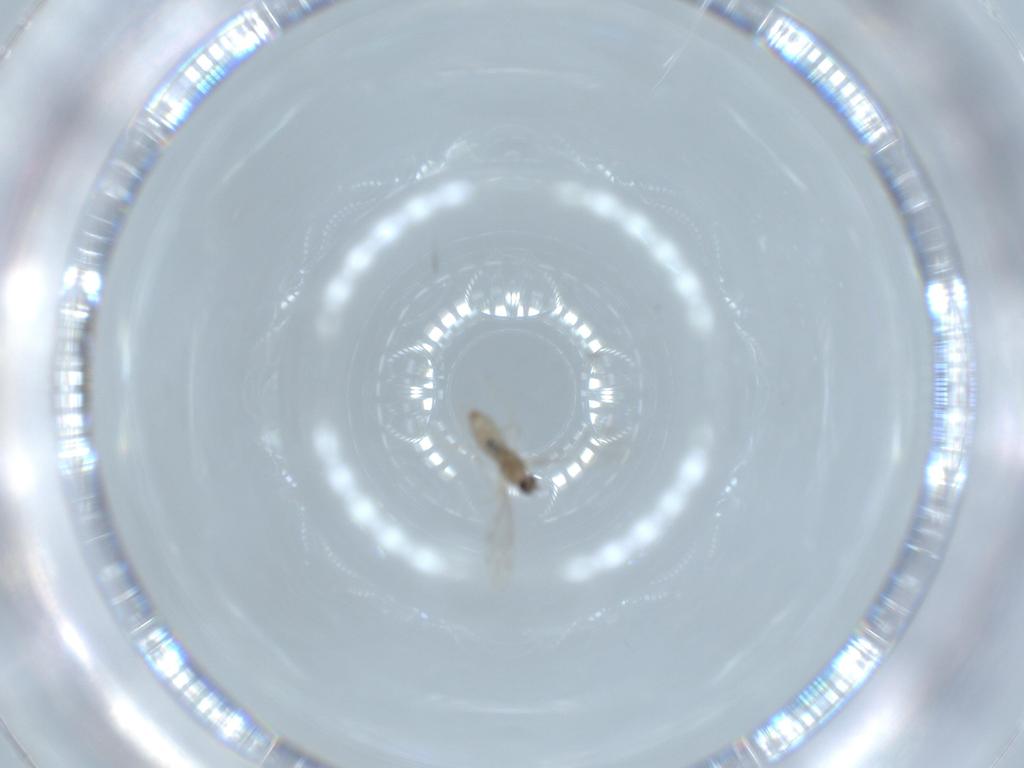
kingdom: Animalia
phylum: Arthropoda
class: Insecta
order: Diptera
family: Cecidomyiidae
